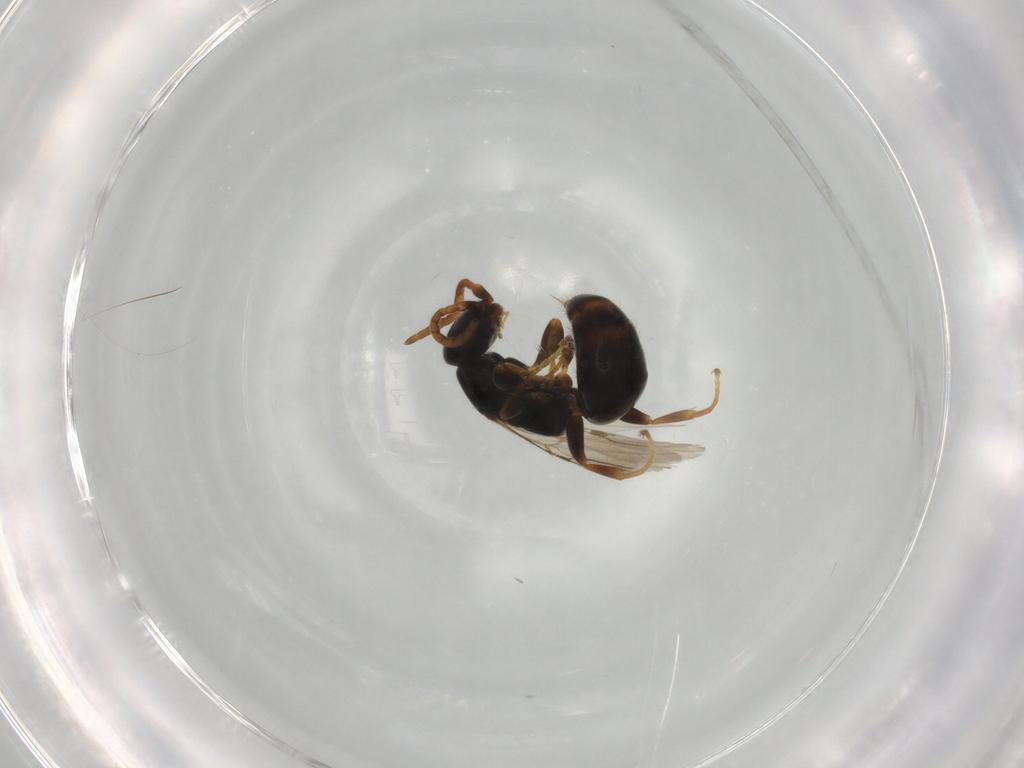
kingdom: Animalia
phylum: Arthropoda
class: Insecta
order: Hymenoptera
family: Bethylidae
